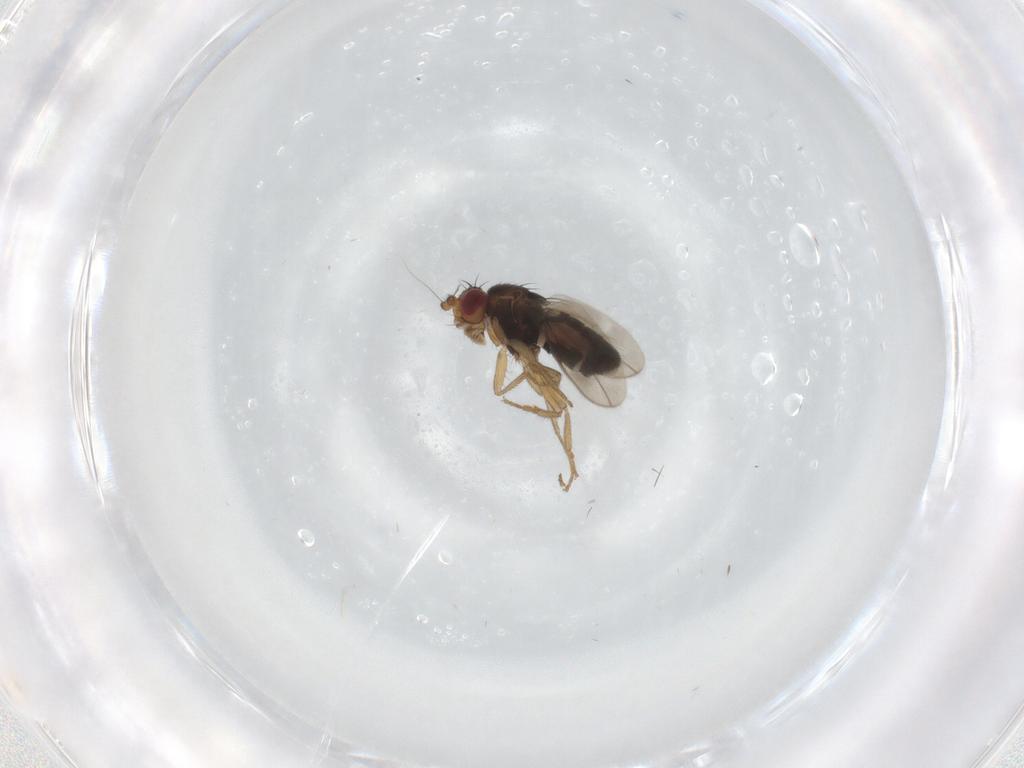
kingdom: Animalia
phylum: Arthropoda
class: Insecta
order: Diptera
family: Sphaeroceridae
